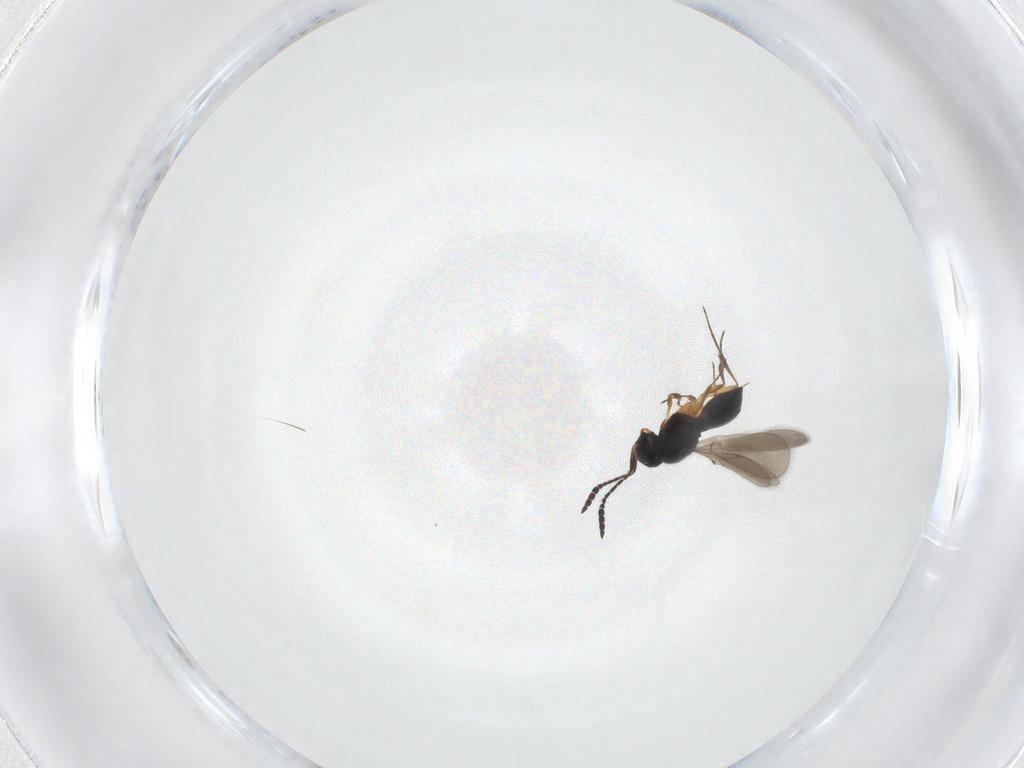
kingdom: Animalia
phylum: Arthropoda
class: Insecta
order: Hymenoptera
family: Scelionidae
